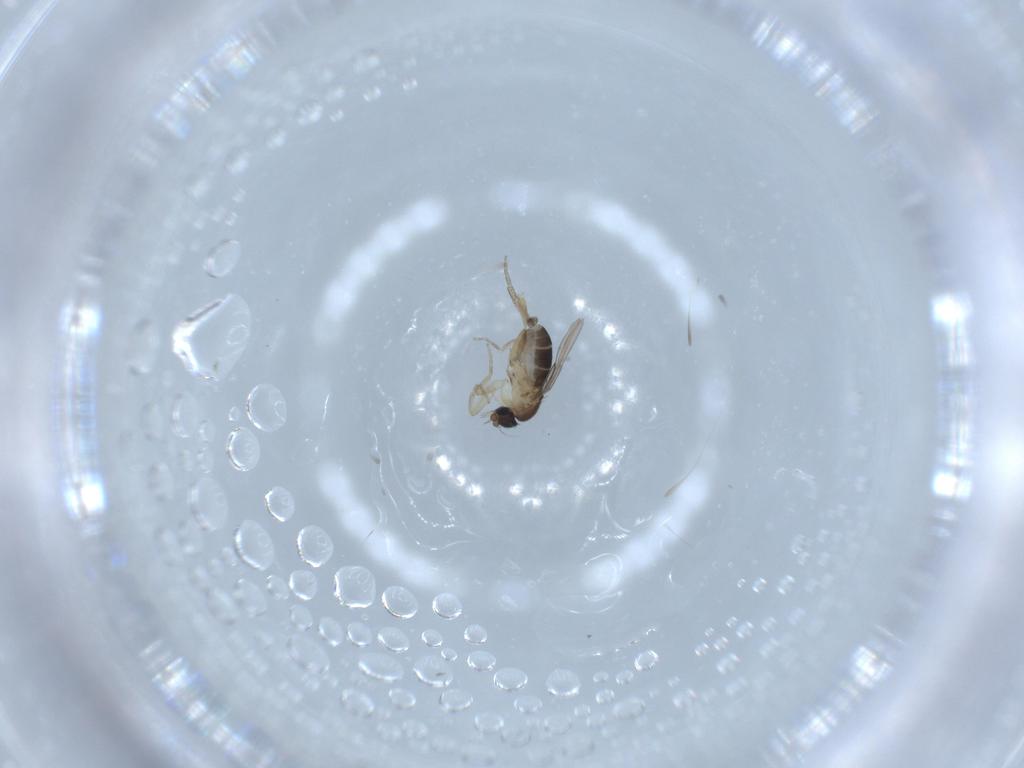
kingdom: Animalia
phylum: Arthropoda
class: Insecta
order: Diptera
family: Phoridae
